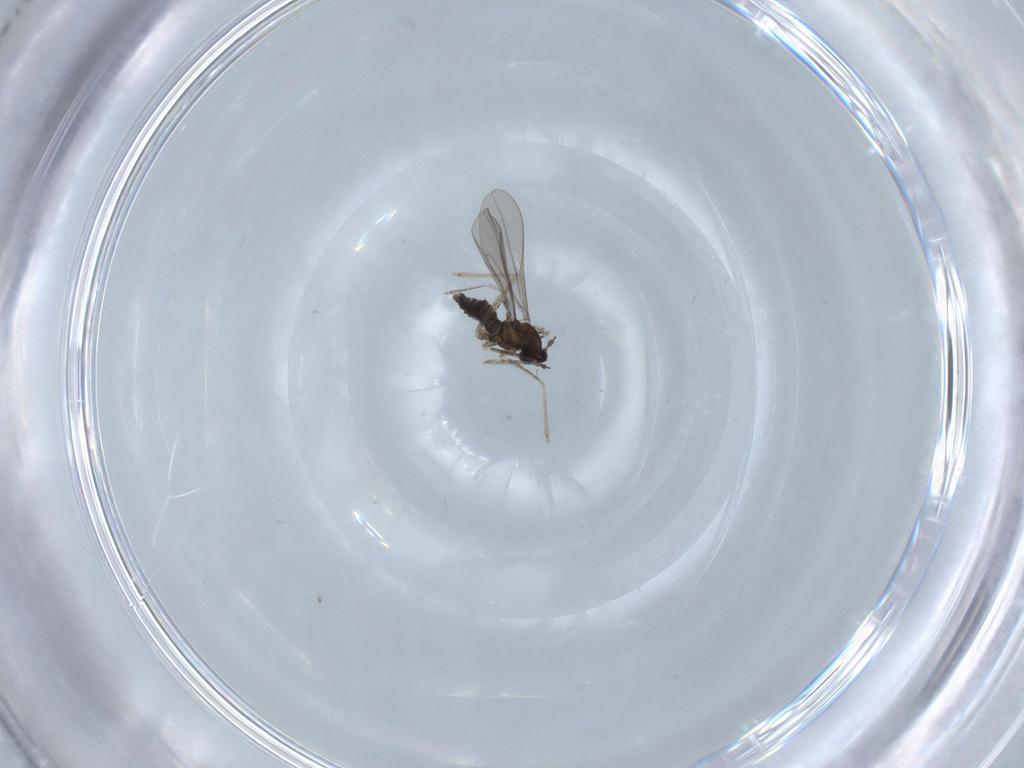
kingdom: Animalia
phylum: Arthropoda
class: Insecta
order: Diptera
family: Cecidomyiidae
